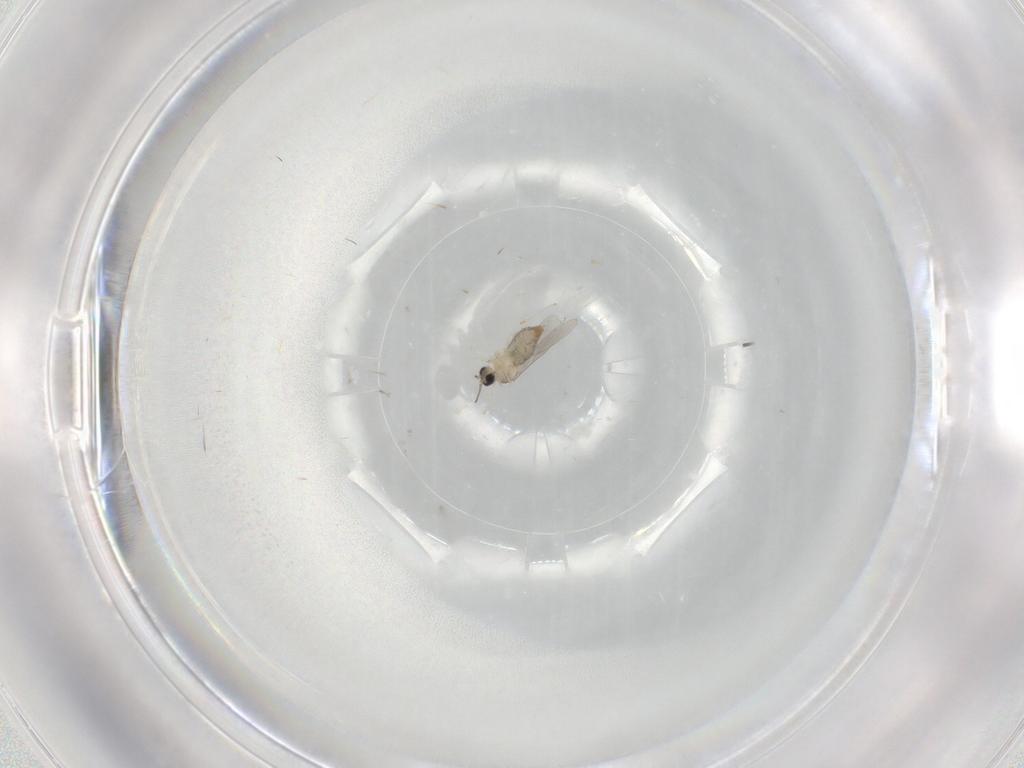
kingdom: Animalia
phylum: Arthropoda
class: Insecta
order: Diptera
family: Cecidomyiidae
